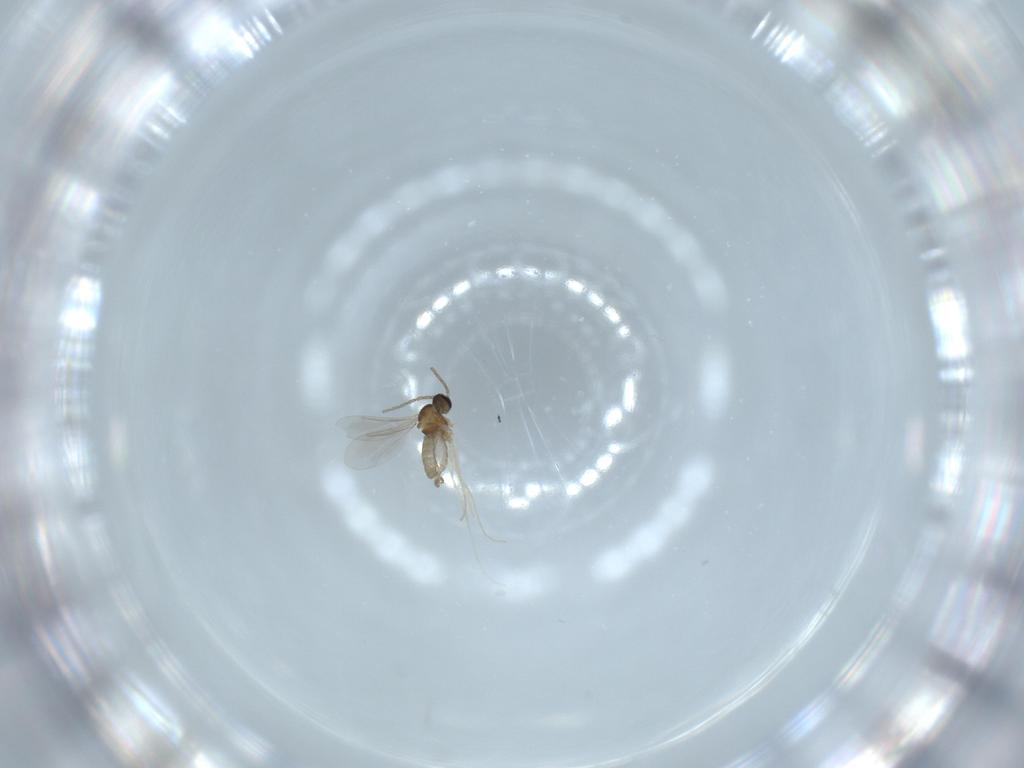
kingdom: Animalia
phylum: Arthropoda
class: Insecta
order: Diptera
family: Cecidomyiidae
